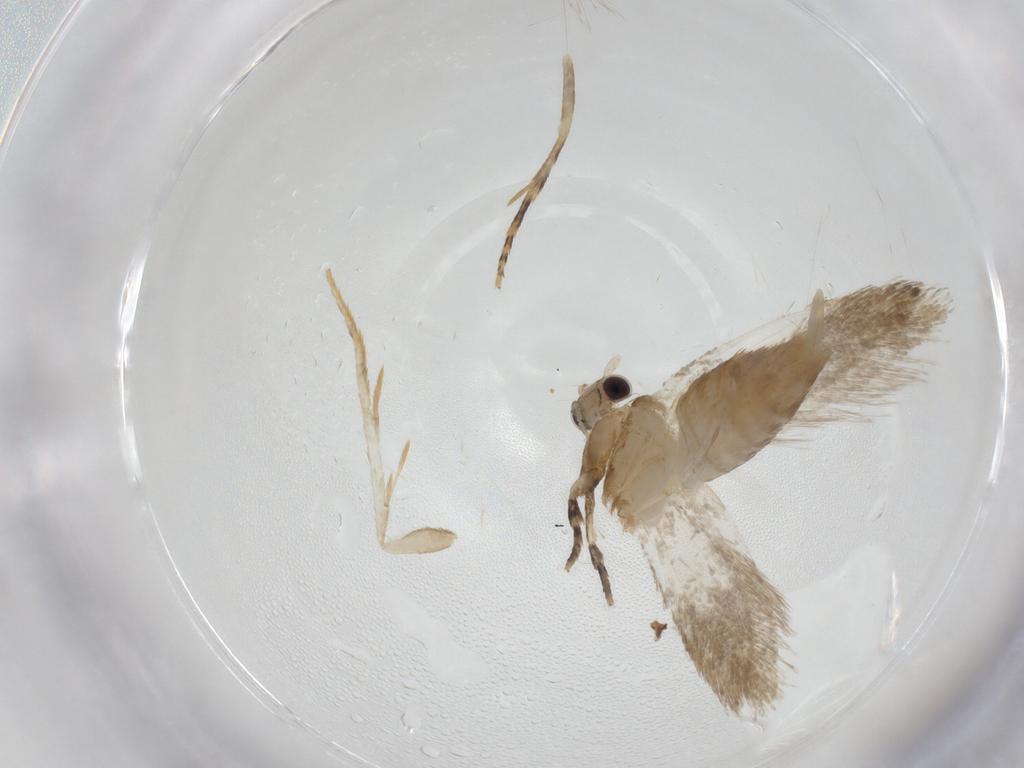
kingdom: Animalia
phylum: Arthropoda
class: Insecta
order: Lepidoptera
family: Tineidae
